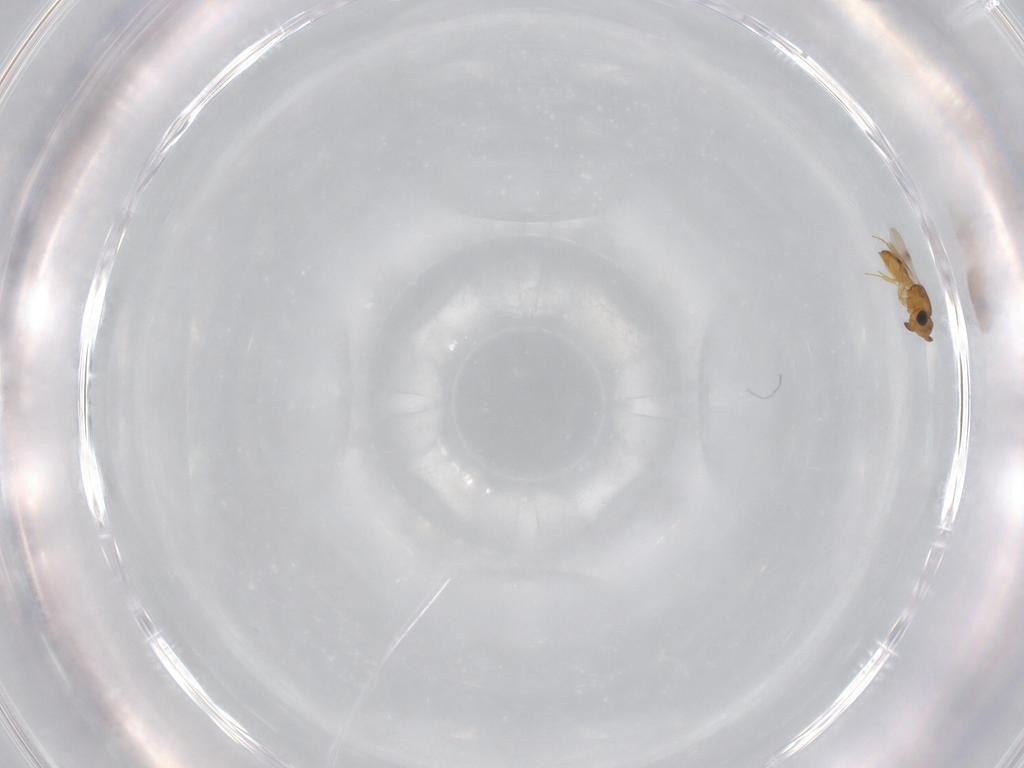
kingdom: Animalia
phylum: Arthropoda
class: Insecta
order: Hymenoptera
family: Scelionidae
